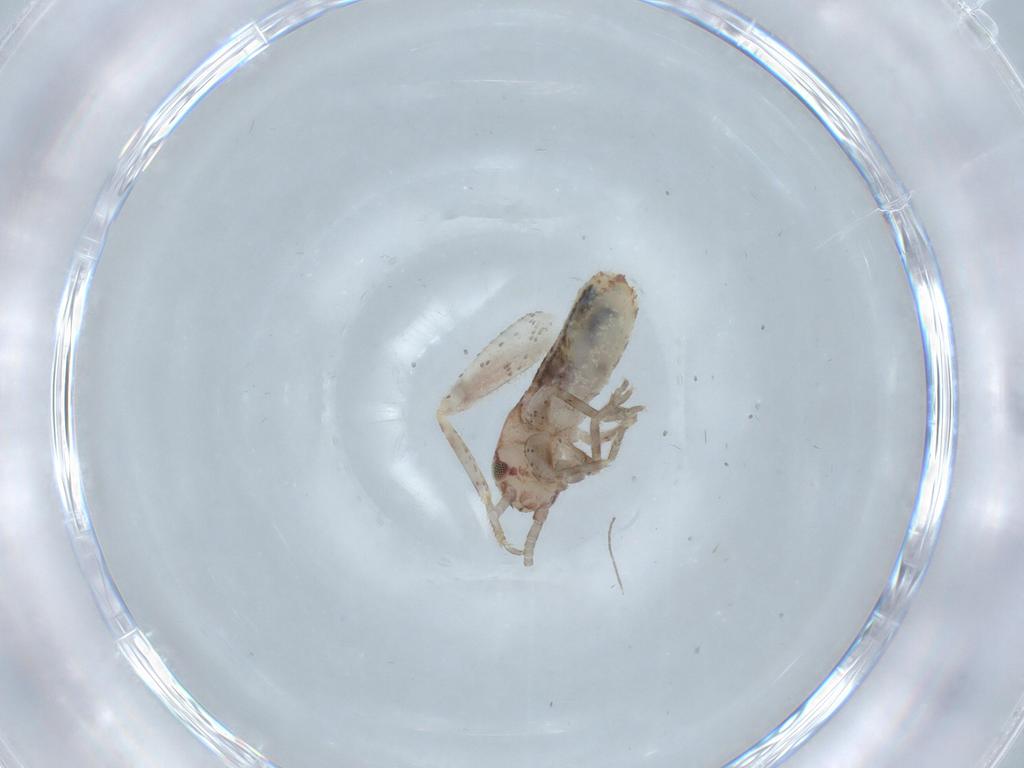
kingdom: Animalia
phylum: Arthropoda
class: Insecta
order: Orthoptera
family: Mogoplistidae
